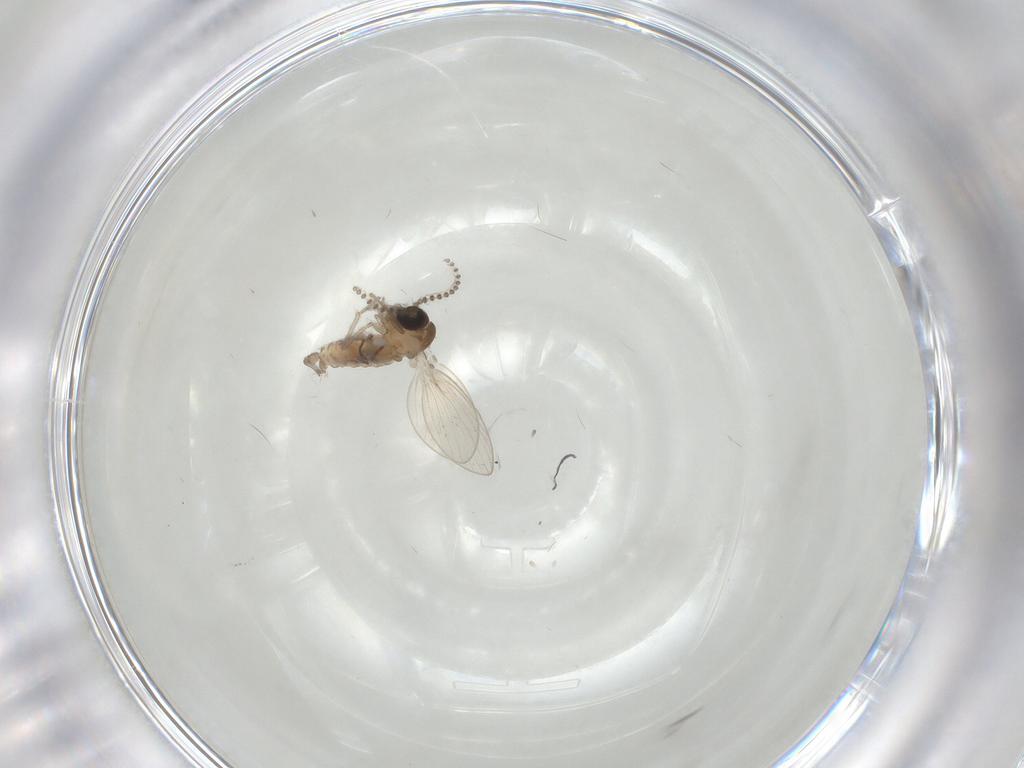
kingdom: Animalia
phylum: Arthropoda
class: Insecta
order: Diptera
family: Psychodidae
